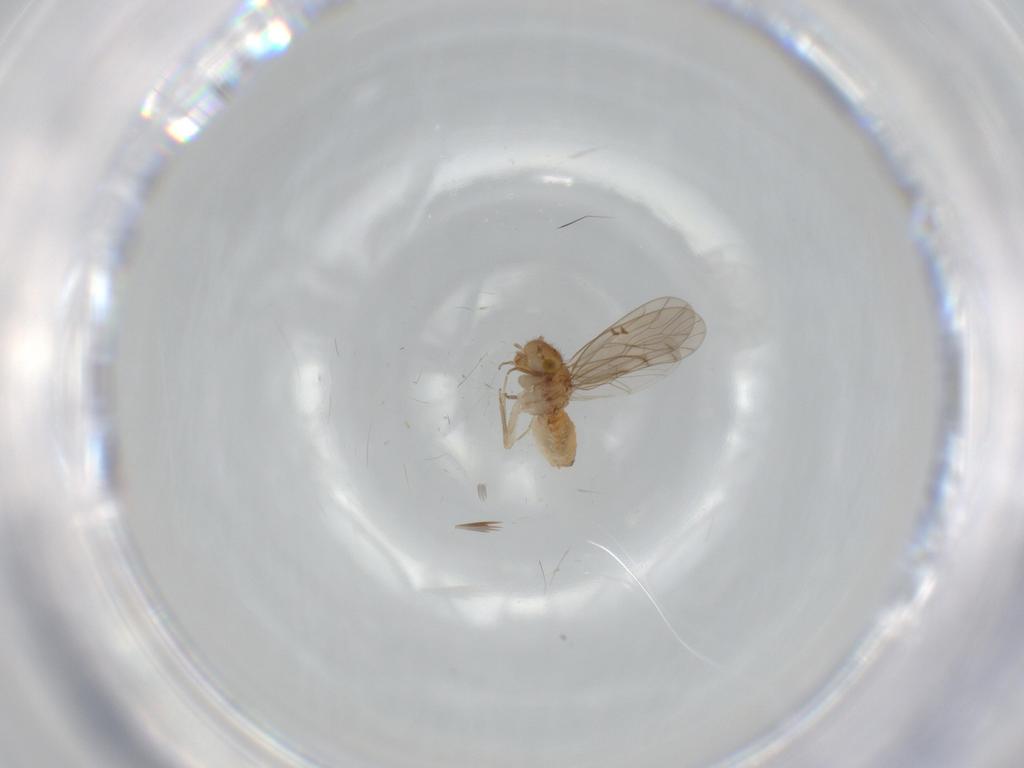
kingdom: Animalia
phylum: Arthropoda
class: Insecta
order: Psocodea
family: Ectopsocidae
